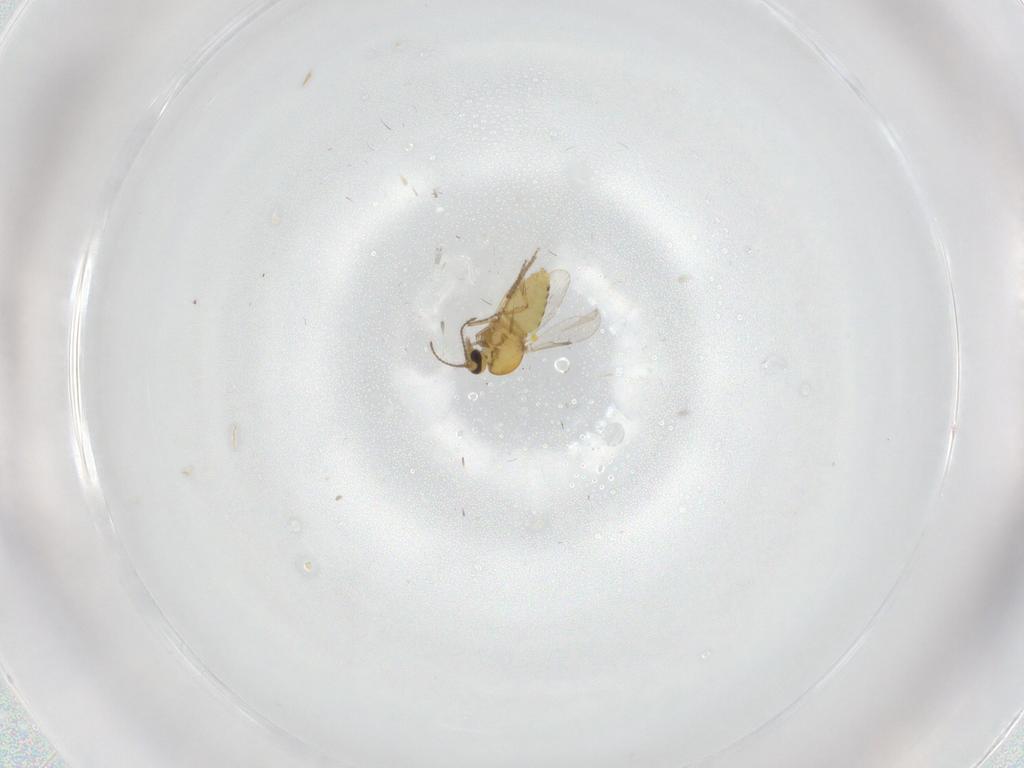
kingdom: Animalia
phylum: Arthropoda
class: Insecta
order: Diptera
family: Ceratopogonidae
